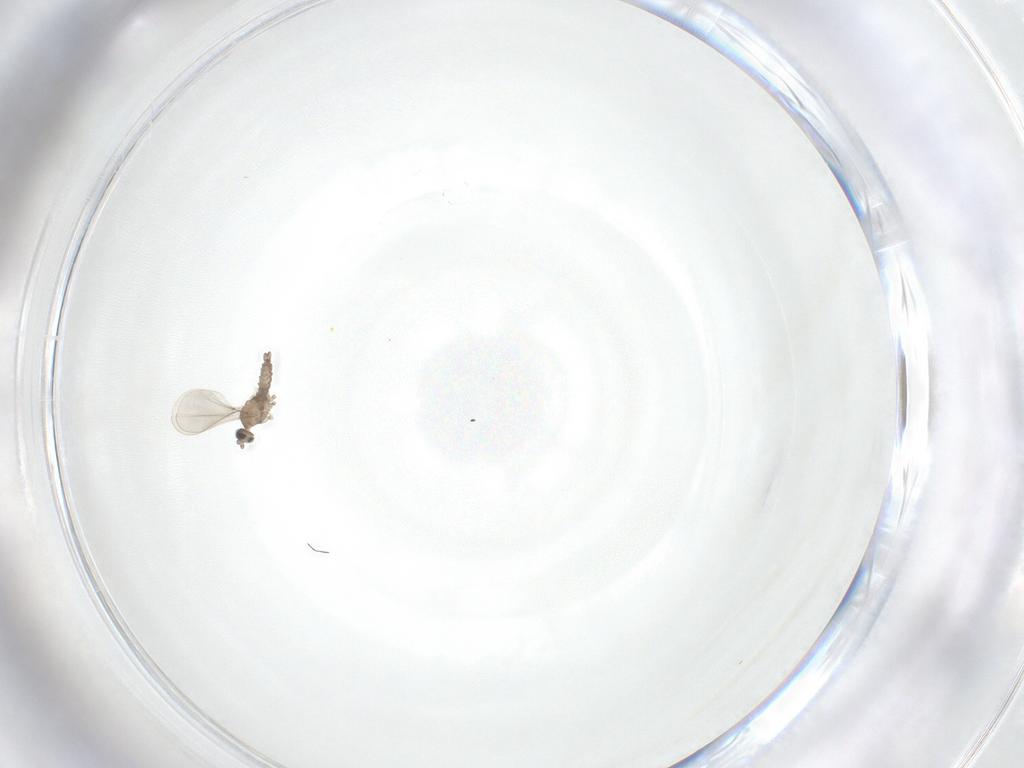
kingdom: Animalia
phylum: Arthropoda
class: Insecta
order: Diptera
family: Cecidomyiidae
